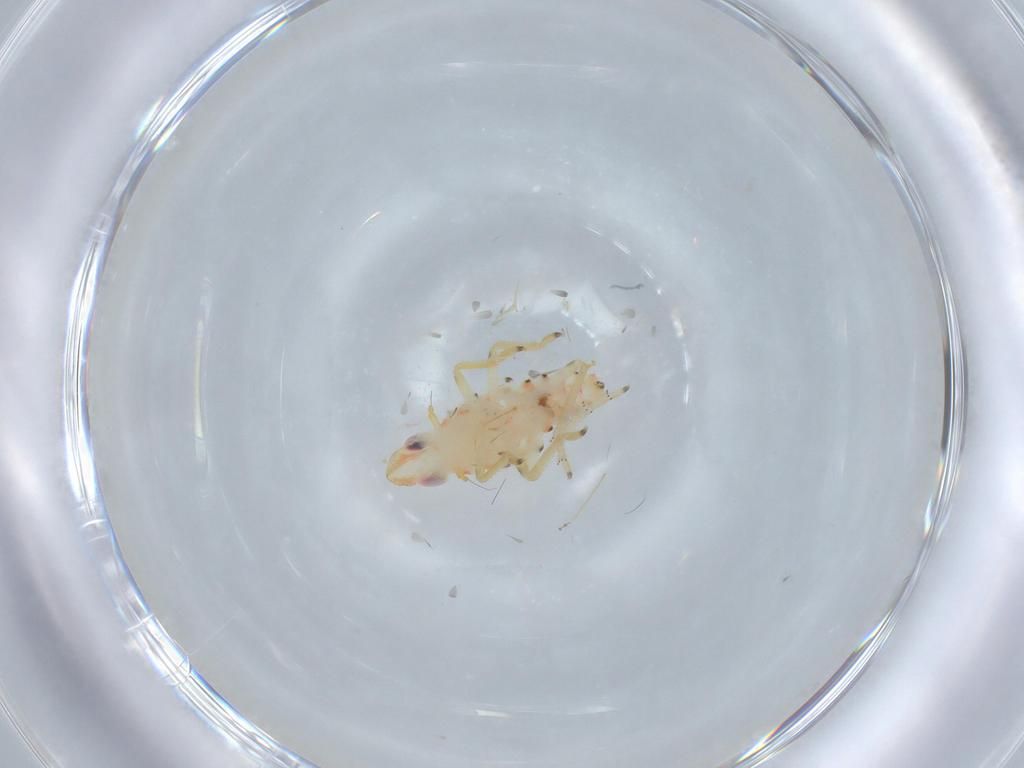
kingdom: Animalia
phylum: Arthropoda
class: Insecta
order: Hemiptera
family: Tropiduchidae
